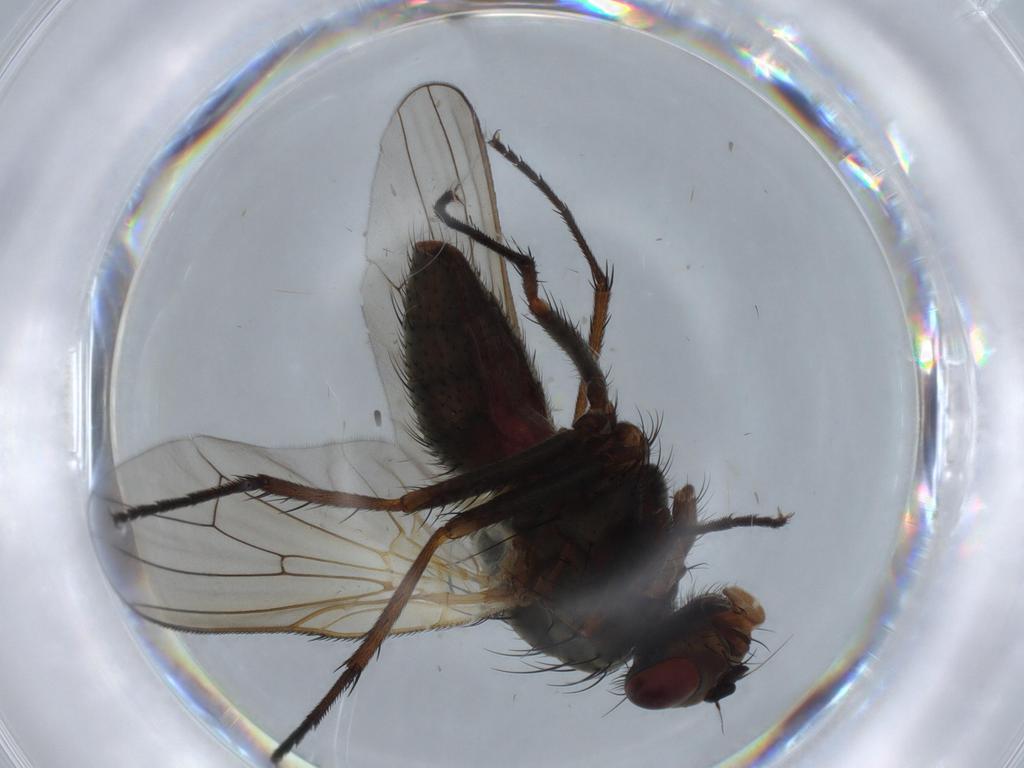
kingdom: Animalia
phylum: Arthropoda
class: Insecta
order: Diptera
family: Anthomyiidae
